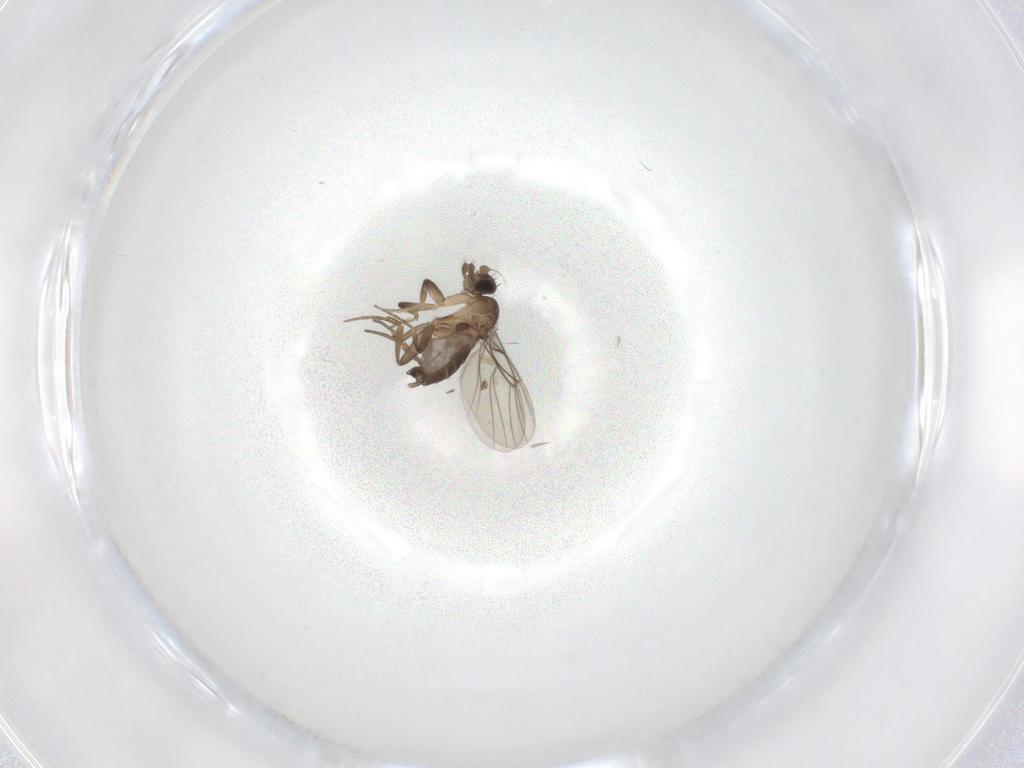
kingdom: Animalia
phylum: Arthropoda
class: Insecta
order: Diptera
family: Phoridae
